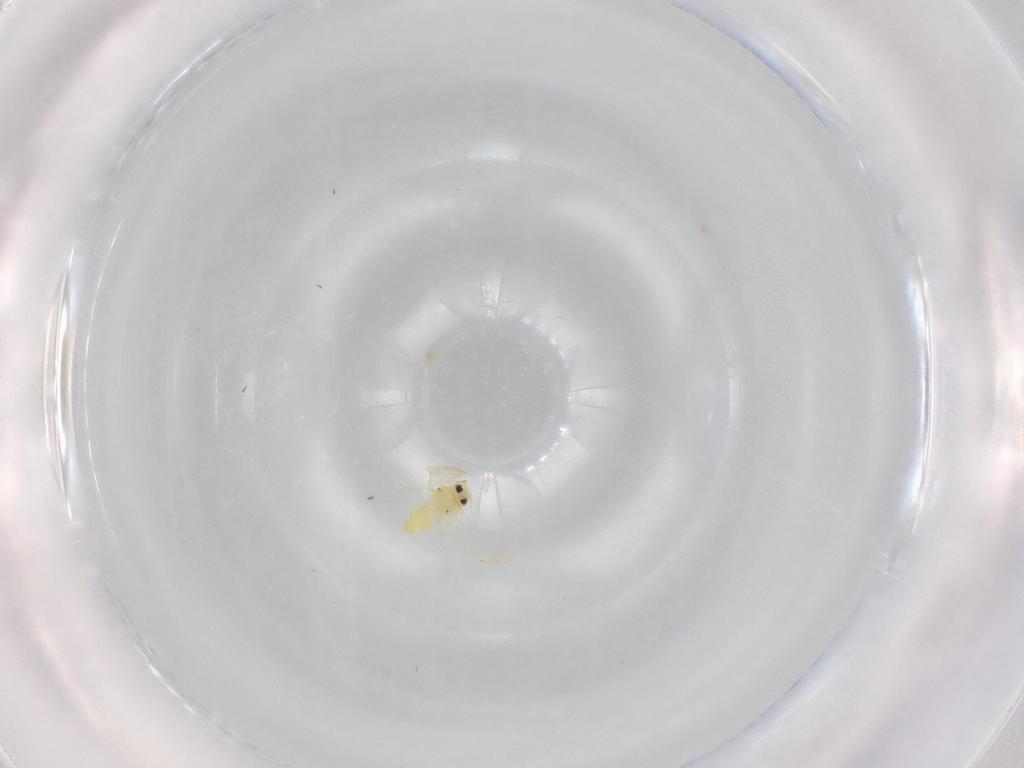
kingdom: Animalia
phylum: Arthropoda
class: Insecta
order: Hemiptera
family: Aleyrodidae
